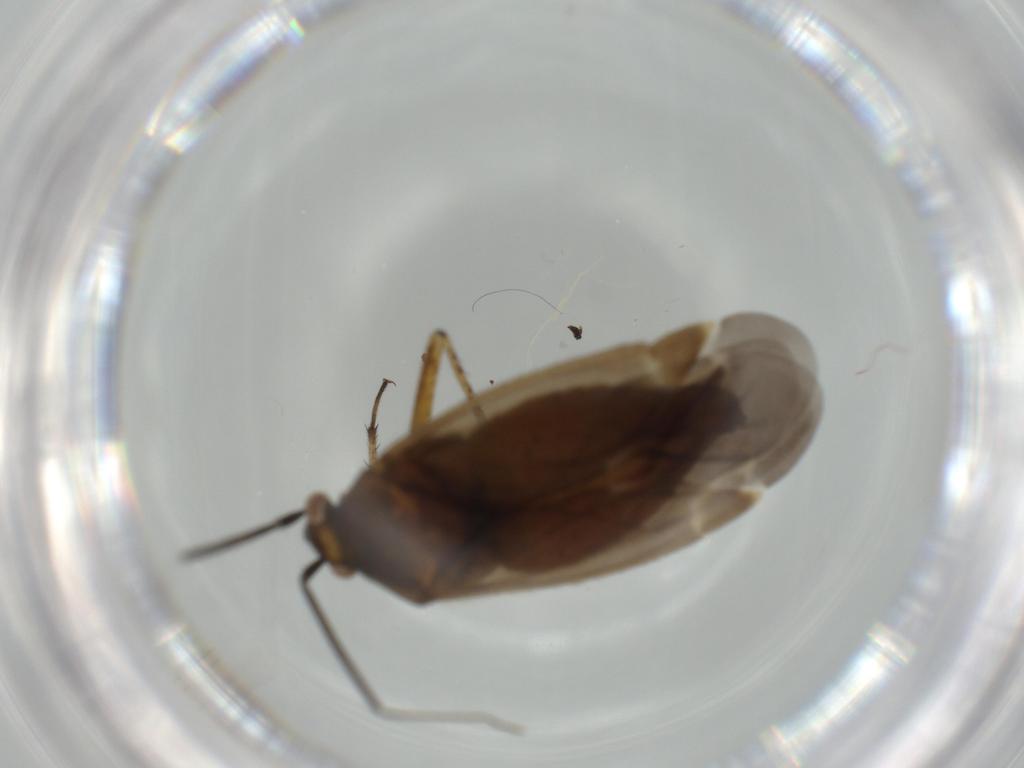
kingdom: Animalia
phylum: Arthropoda
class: Insecta
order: Hemiptera
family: Miridae
